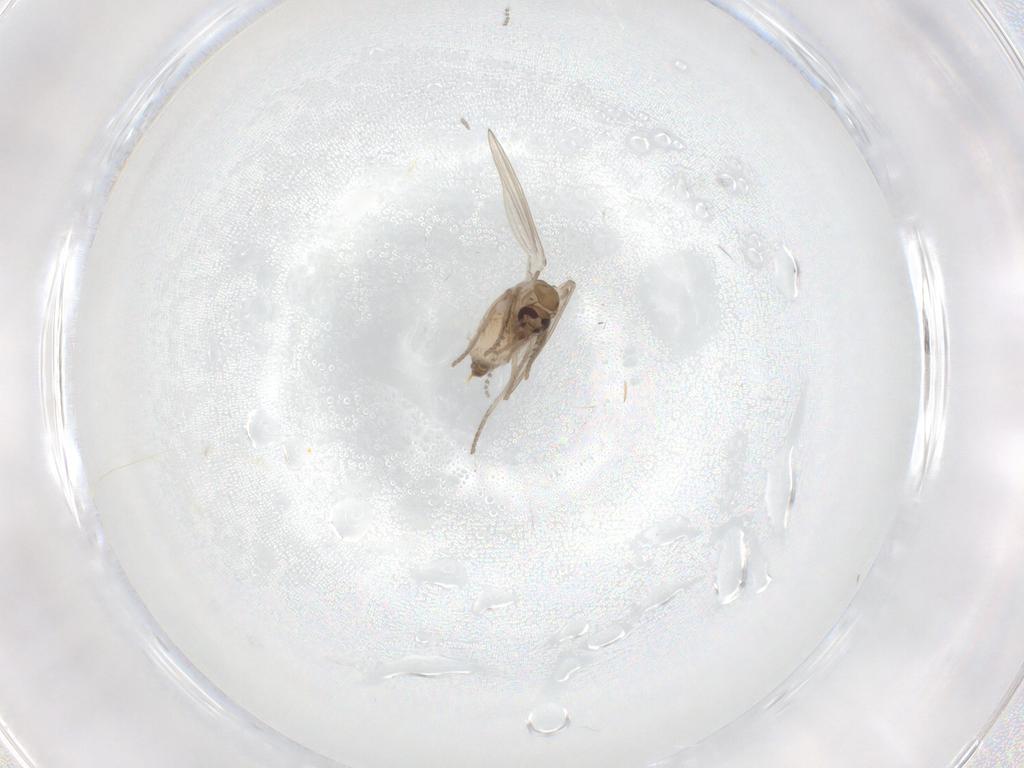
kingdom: Animalia
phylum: Arthropoda
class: Insecta
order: Diptera
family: Psychodidae
